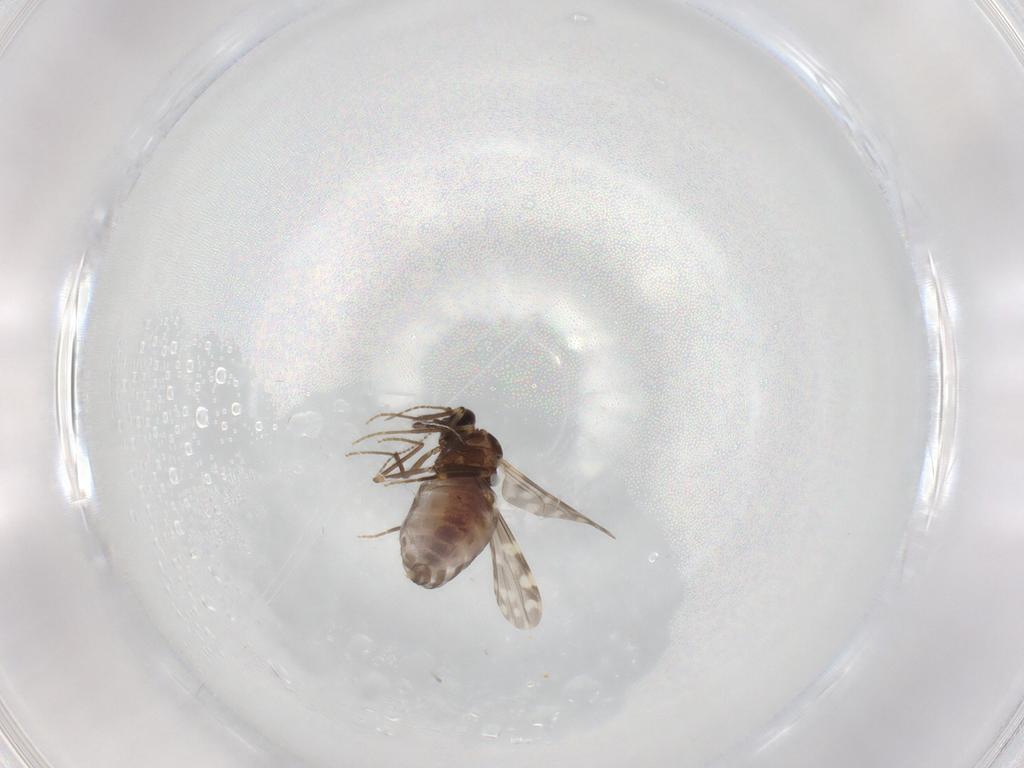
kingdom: Animalia
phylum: Arthropoda
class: Insecta
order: Diptera
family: Ceratopogonidae
